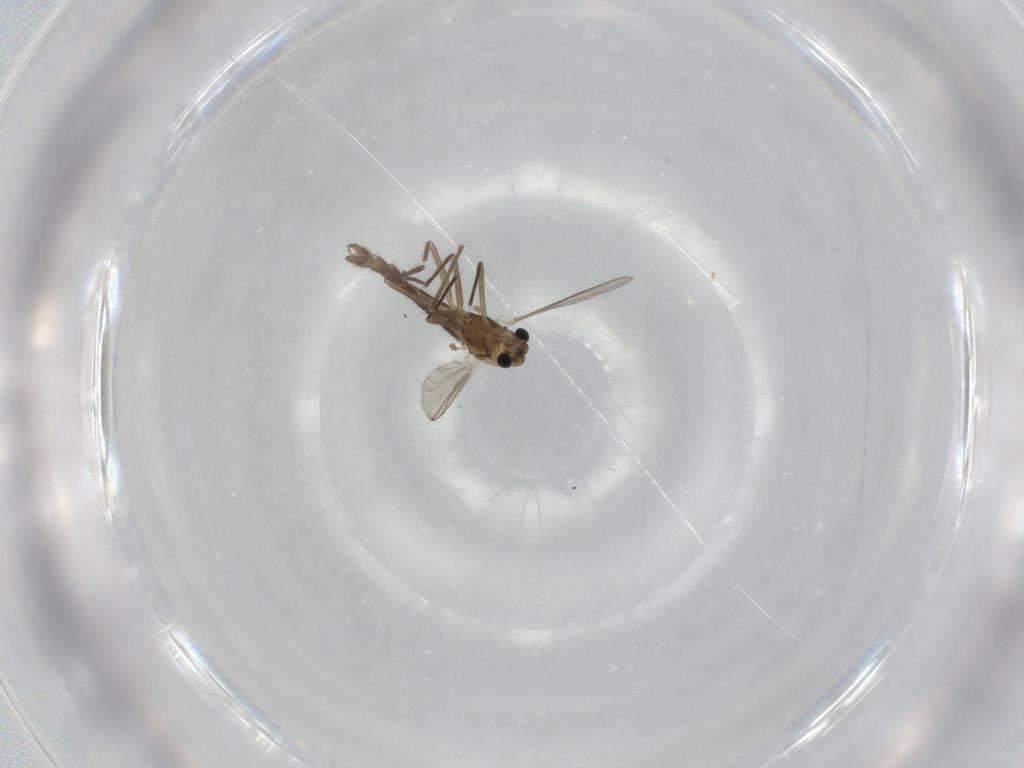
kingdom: Animalia
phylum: Arthropoda
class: Insecta
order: Diptera
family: Chironomidae
